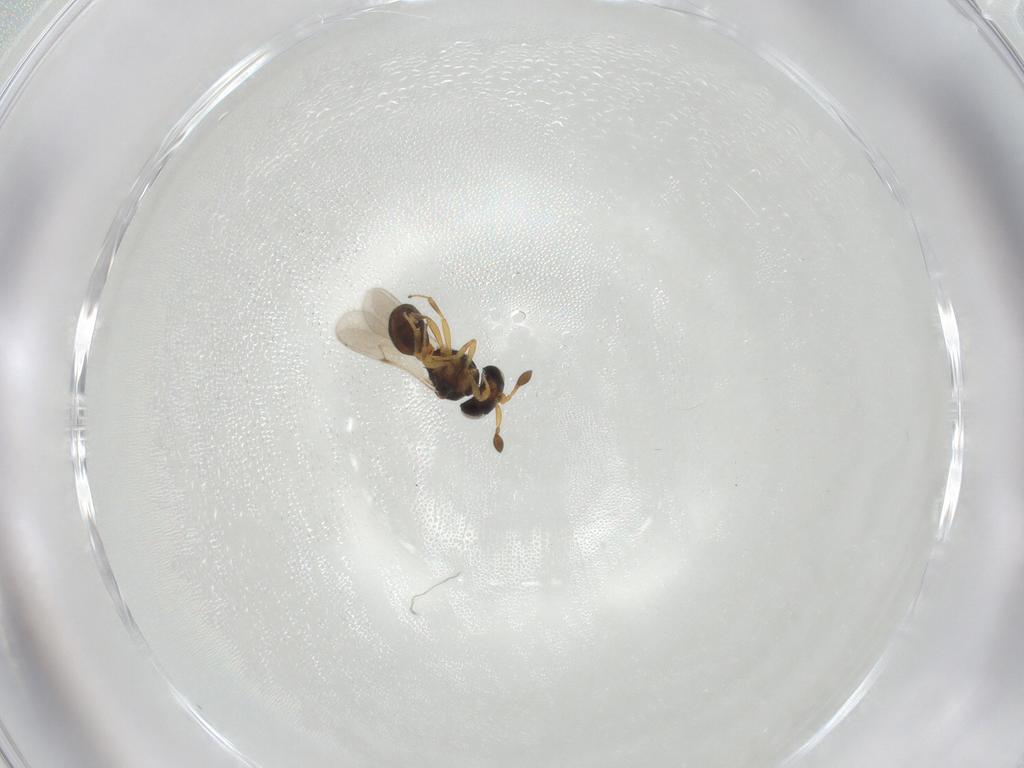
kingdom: Animalia
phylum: Arthropoda
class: Insecta
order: Hymenoptera
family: Scelionidae
